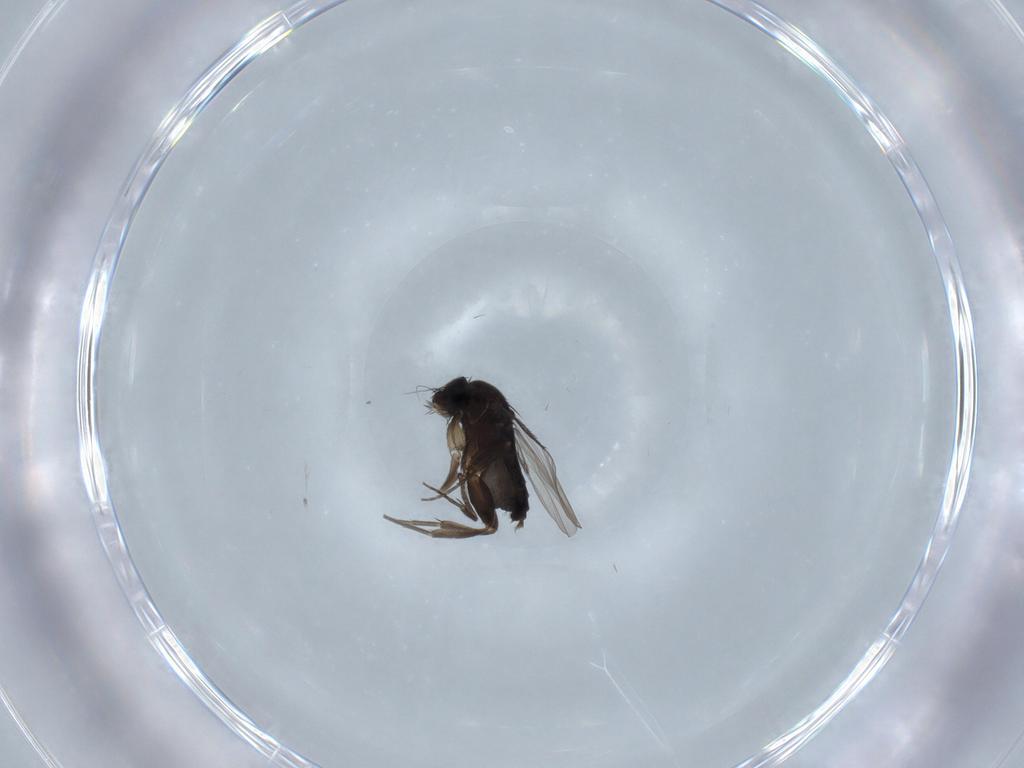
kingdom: Animalia
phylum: Arthropoda
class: Insecta
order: Diptera
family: Phoridae
